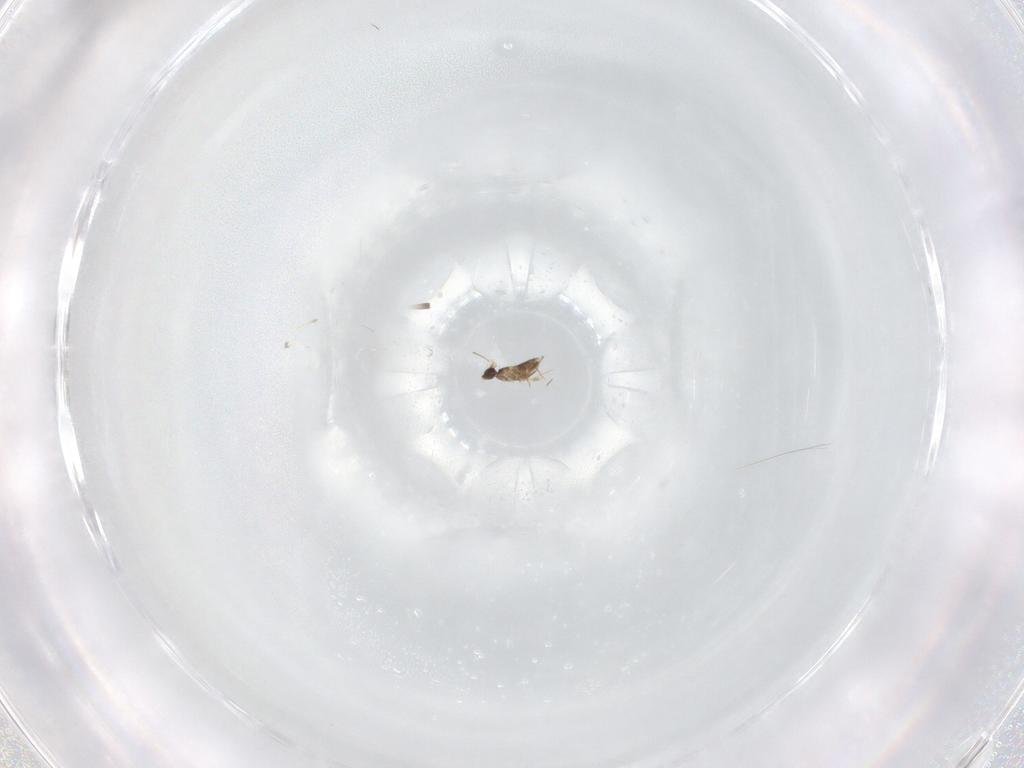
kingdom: Animalia
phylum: Arthropoda
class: Insecta
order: Hymenoptera
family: Mymaridae
